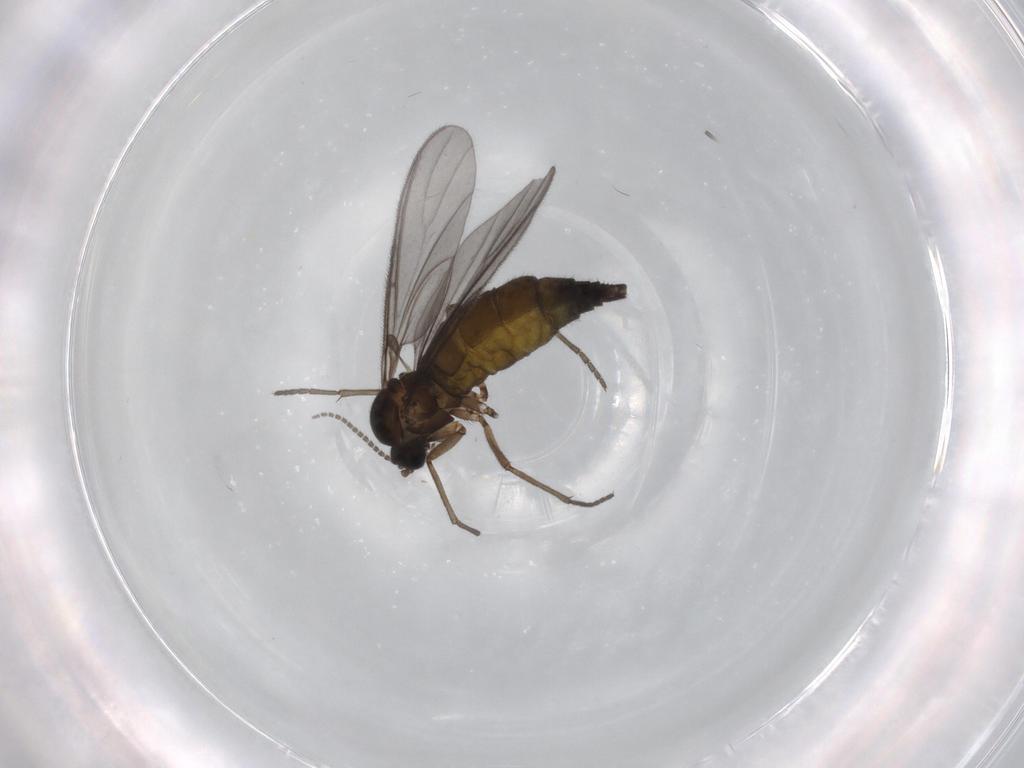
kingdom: Animalia
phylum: Arthropoda
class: Insecta
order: Diptera
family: Sciaridae
